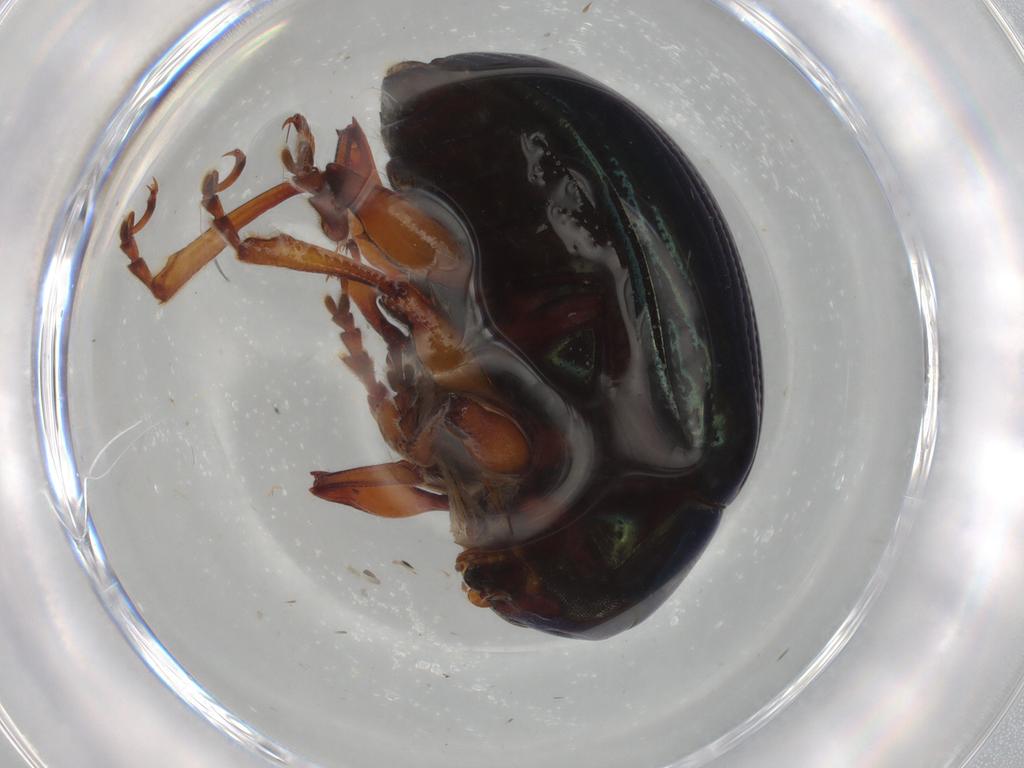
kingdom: Animalia
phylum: Arthropoda
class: Insecta
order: Coleoptera
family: Chrysomelidae
